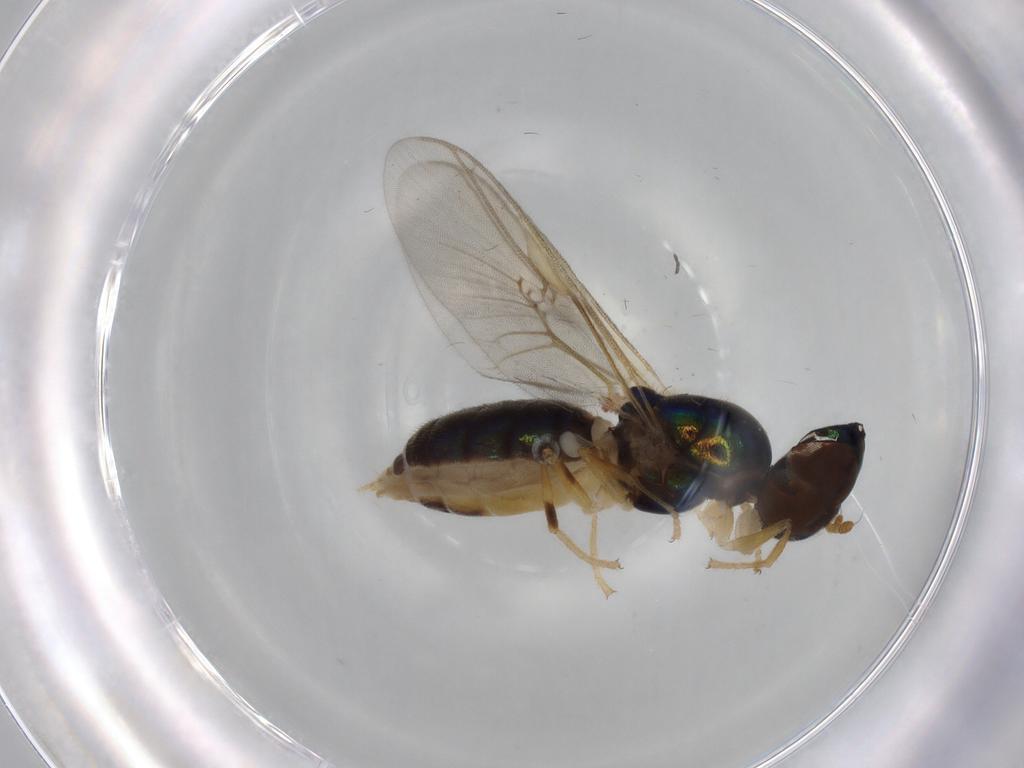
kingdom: Animalia
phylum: Arthropoda
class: Insecta
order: Diptera
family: Stratiomyidae
